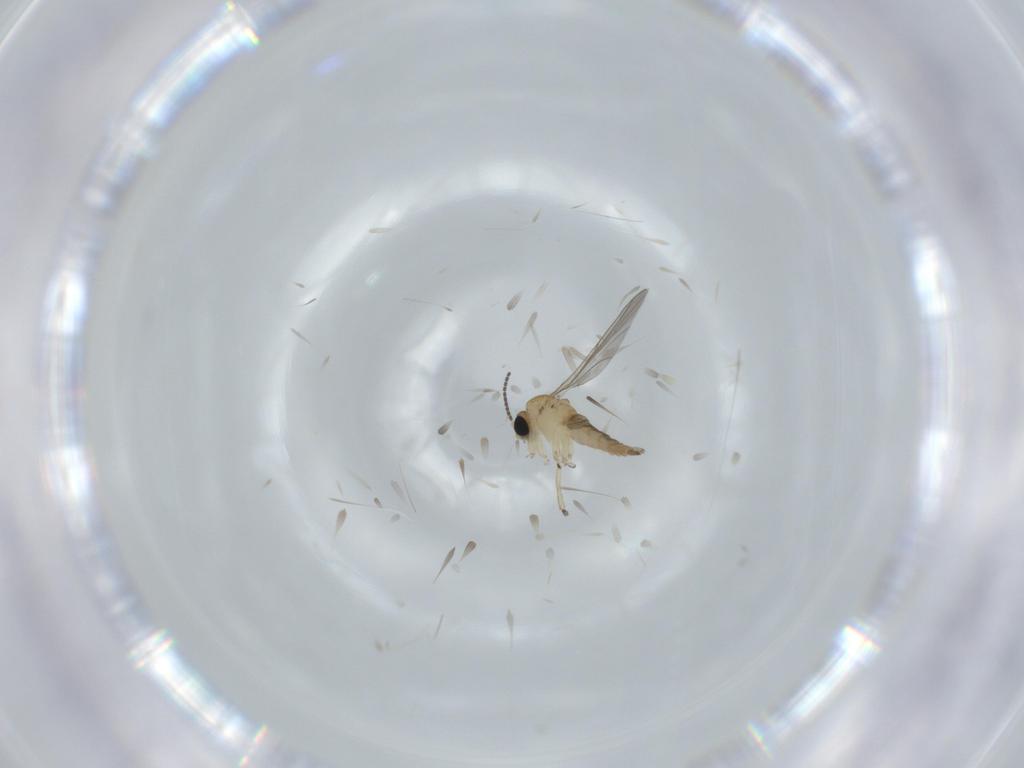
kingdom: Animalia
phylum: Arthropoda
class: Insecta
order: Diptera
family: Sciaridae
